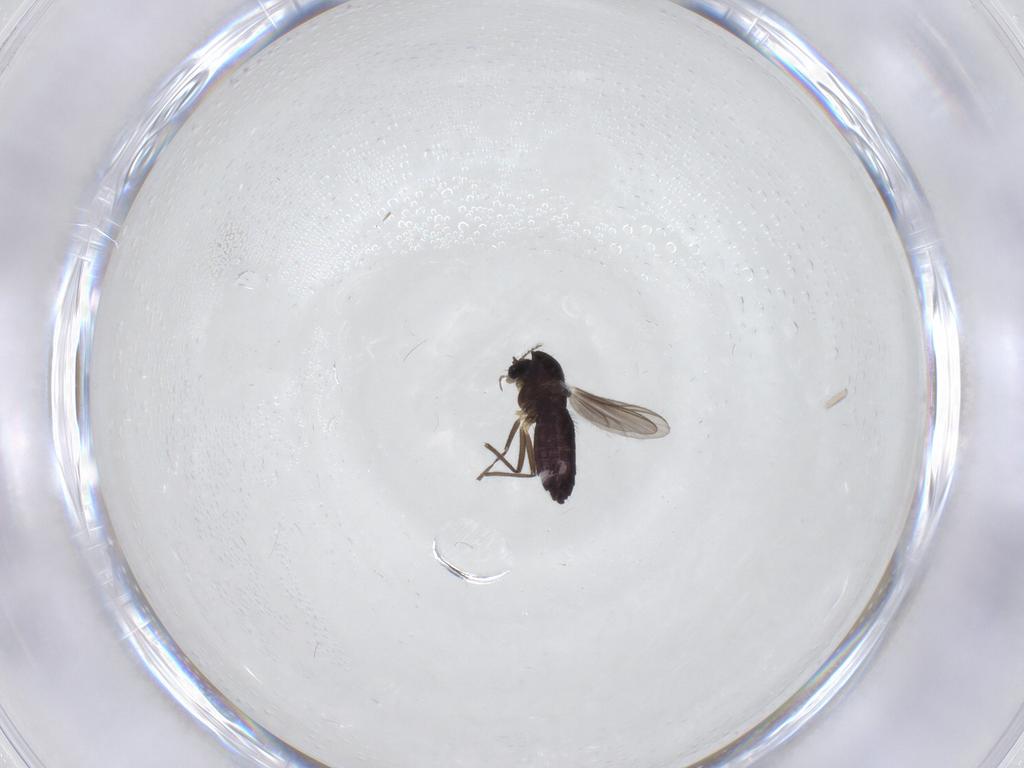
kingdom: Animalia
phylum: Arthropoda
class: Insecta
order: Diptera
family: Chironomidae
